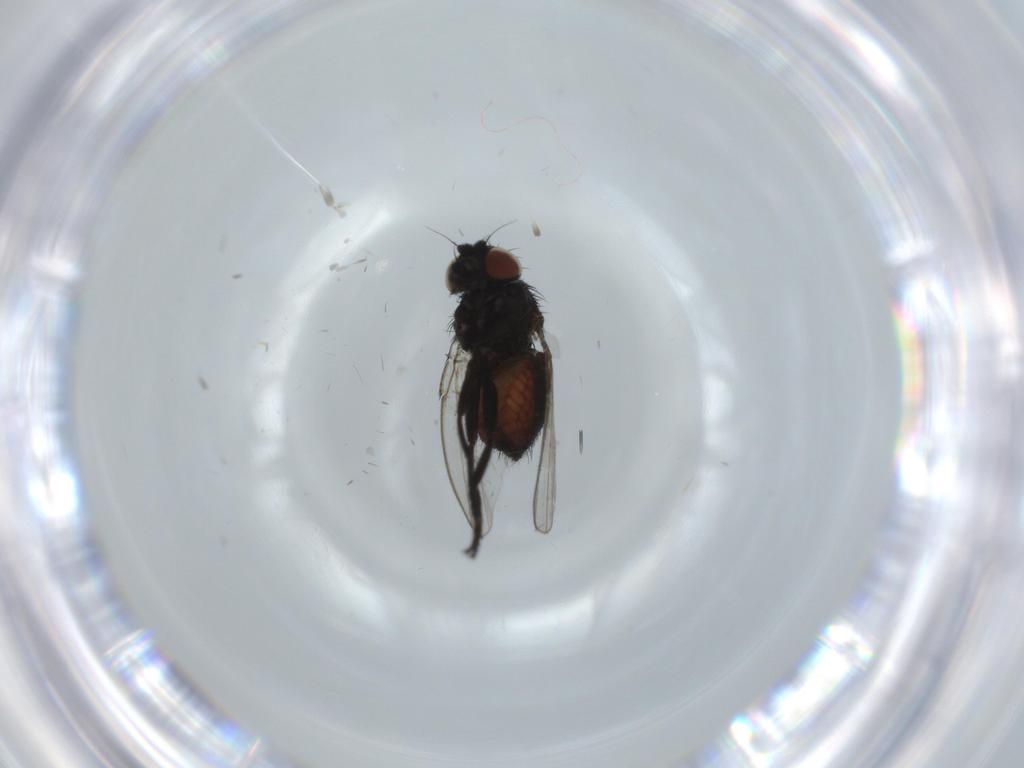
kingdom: Animalia
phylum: Arthropoda
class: Insecta
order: Diptera
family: Milichiidae
